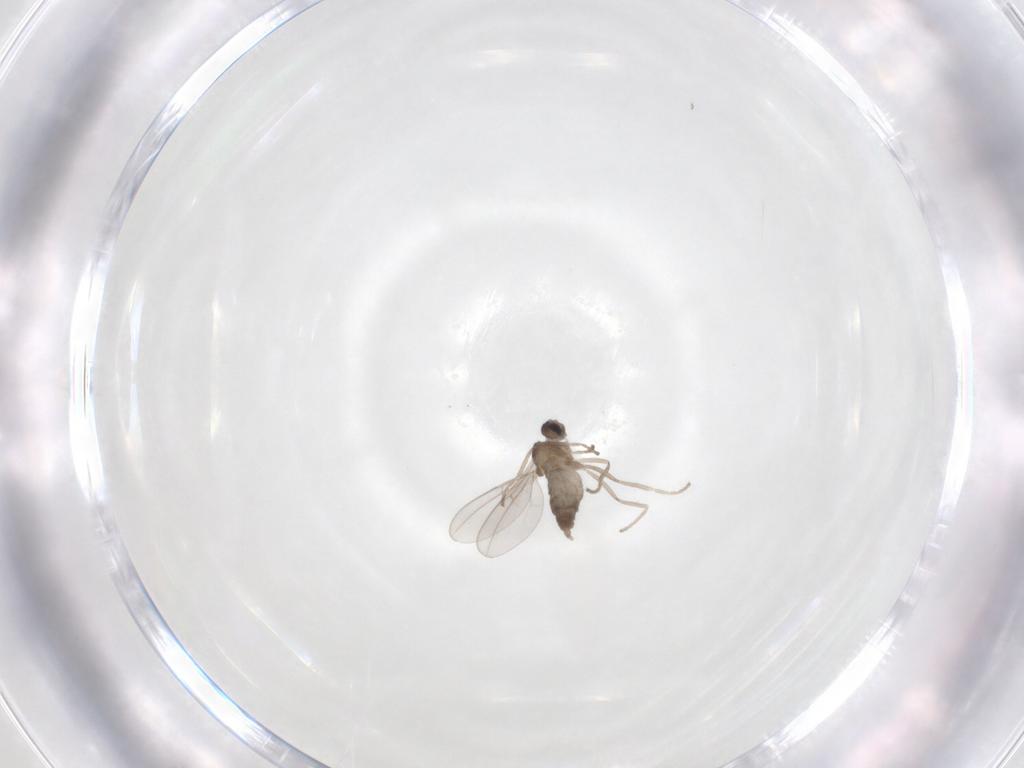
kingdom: Animalia
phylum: Arthropoda
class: Insecta
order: Diptera
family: Cecidomyiidae
